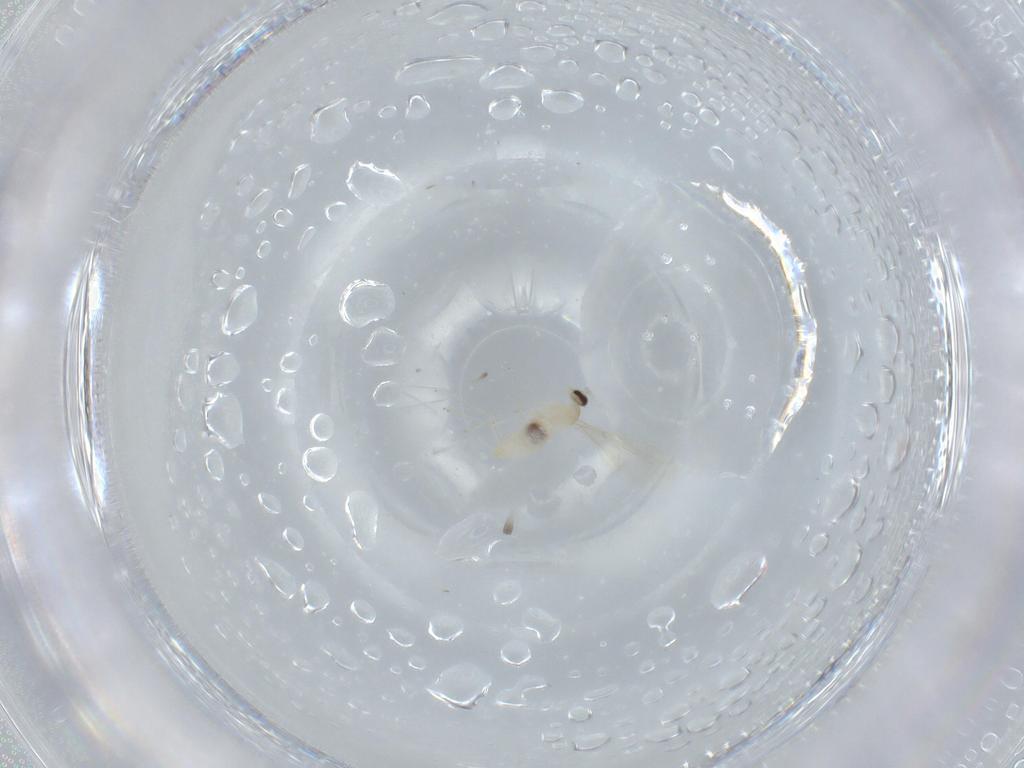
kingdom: Animalia
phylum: Arthropoda
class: Insecta
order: Diptera
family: Cecidomyiidae
